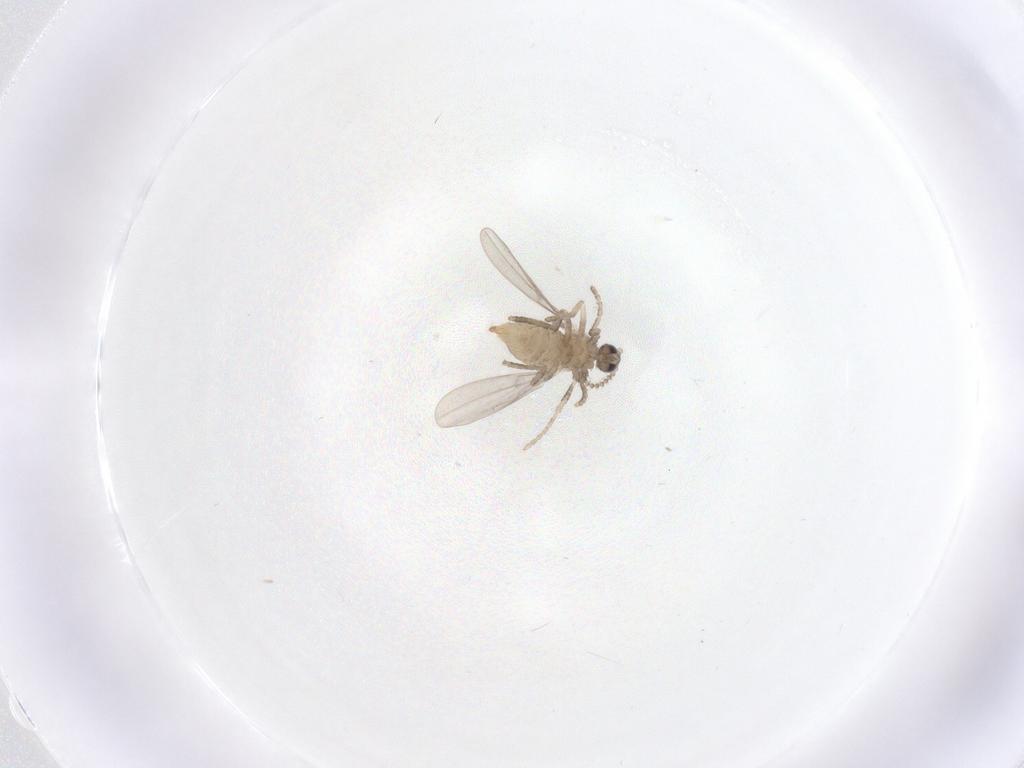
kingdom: Animalia
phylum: Arthropoda
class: Insecta
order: Diptera
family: Cecidomyiidae
